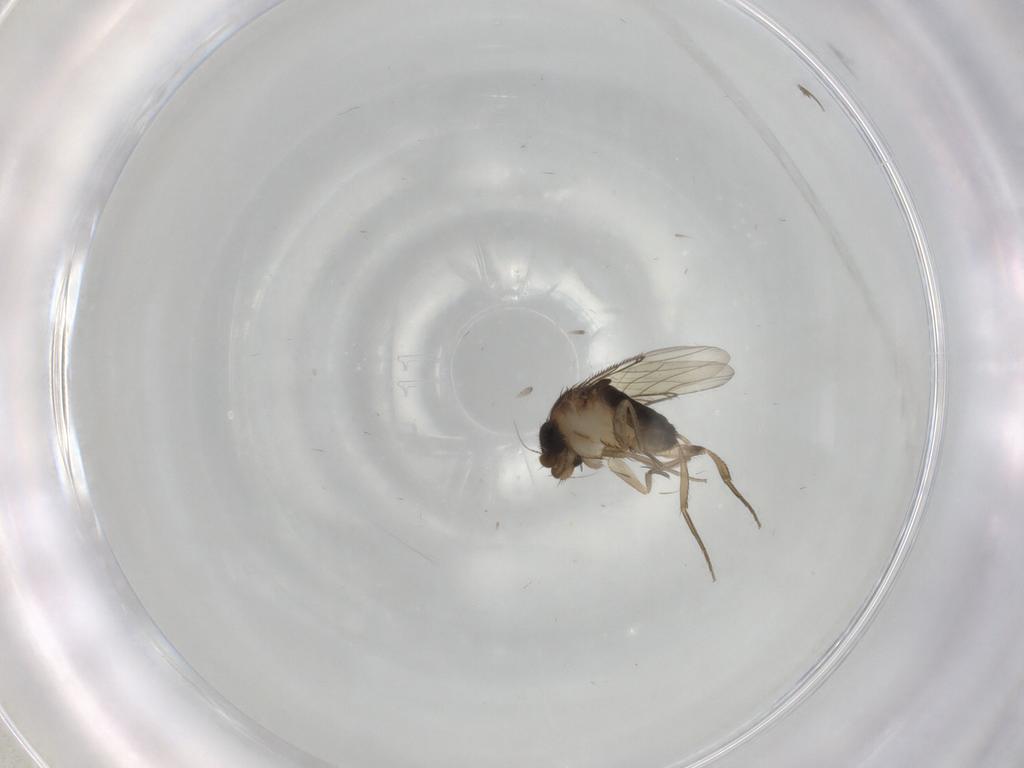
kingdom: Animalia
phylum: Arthropoda
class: Insecta
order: Diptera
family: Phoridae
